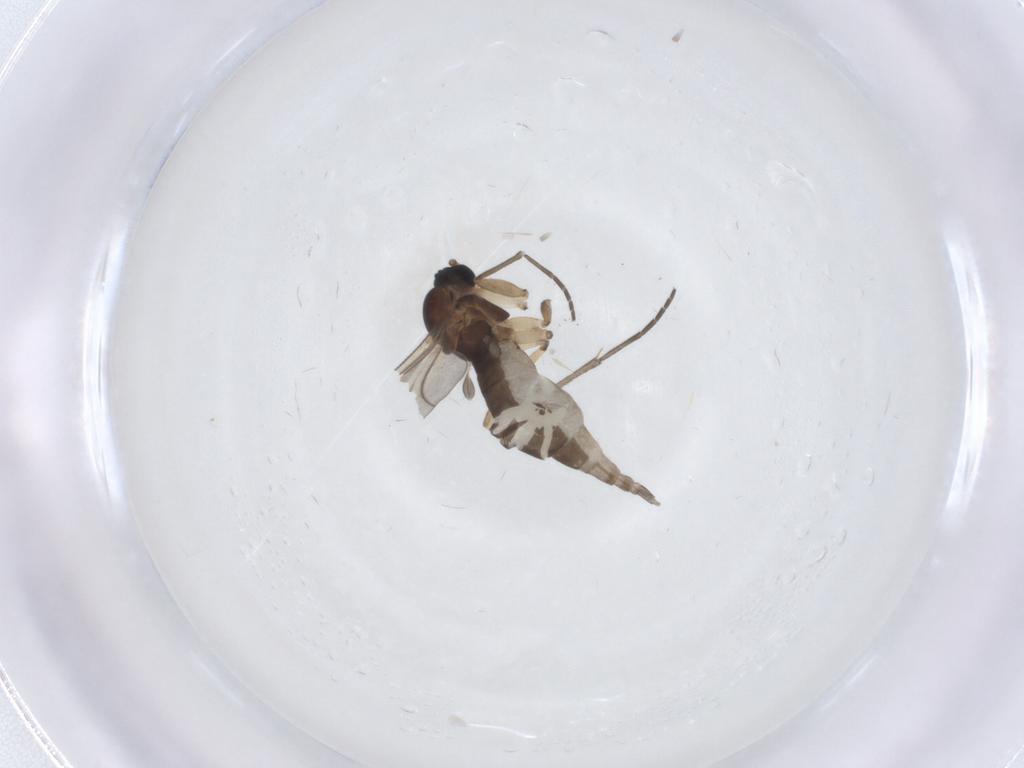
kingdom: Animalia
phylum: Arthropoda
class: Insecta
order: Diptera
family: Sciaridae
